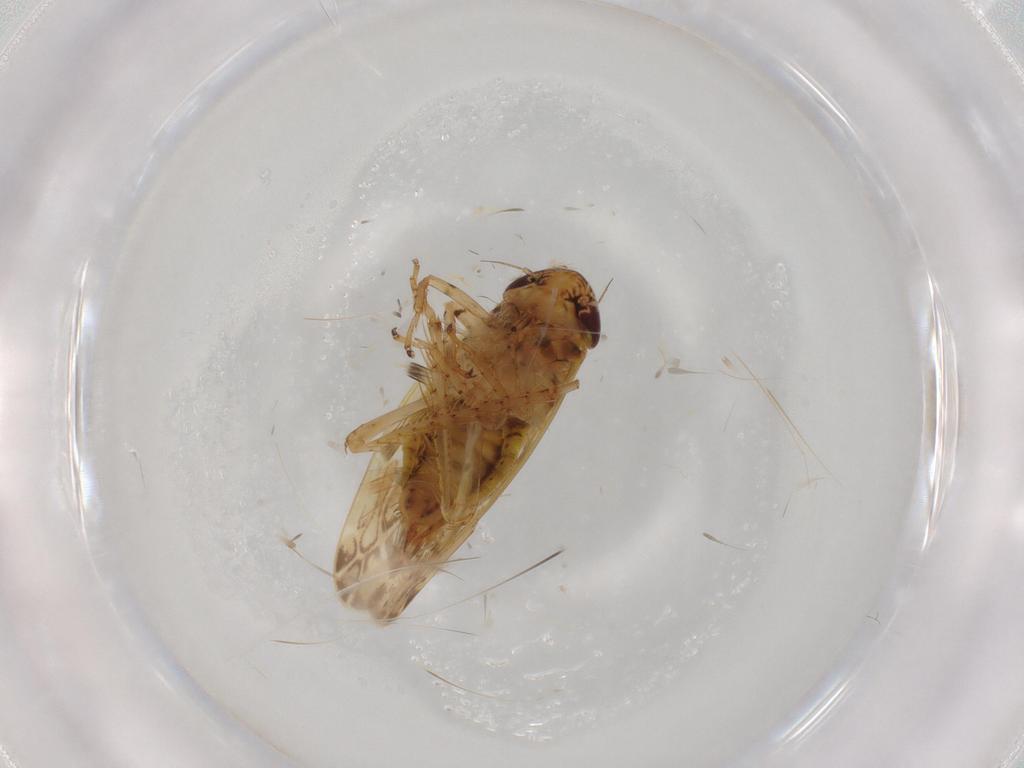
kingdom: Animalia
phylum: Arthropoda
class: Insecta
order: Hemiptera
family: Cicadellidae
